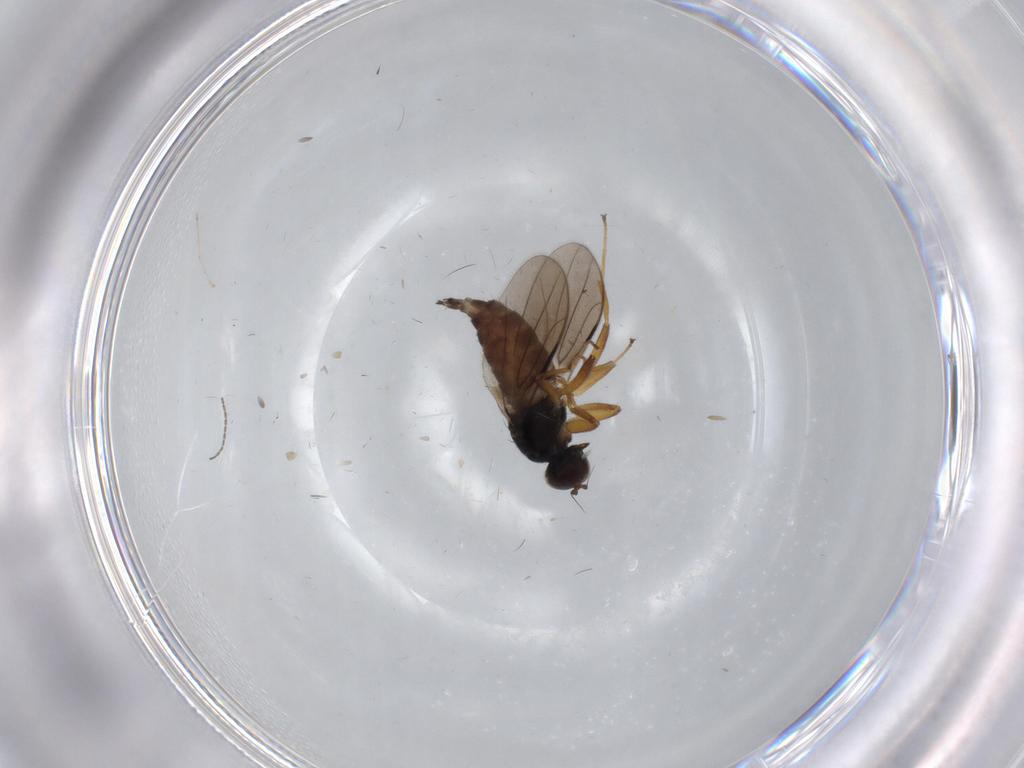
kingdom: Animalia
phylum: Arthropoda
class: Insecta
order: Diptera
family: Hybotidae
